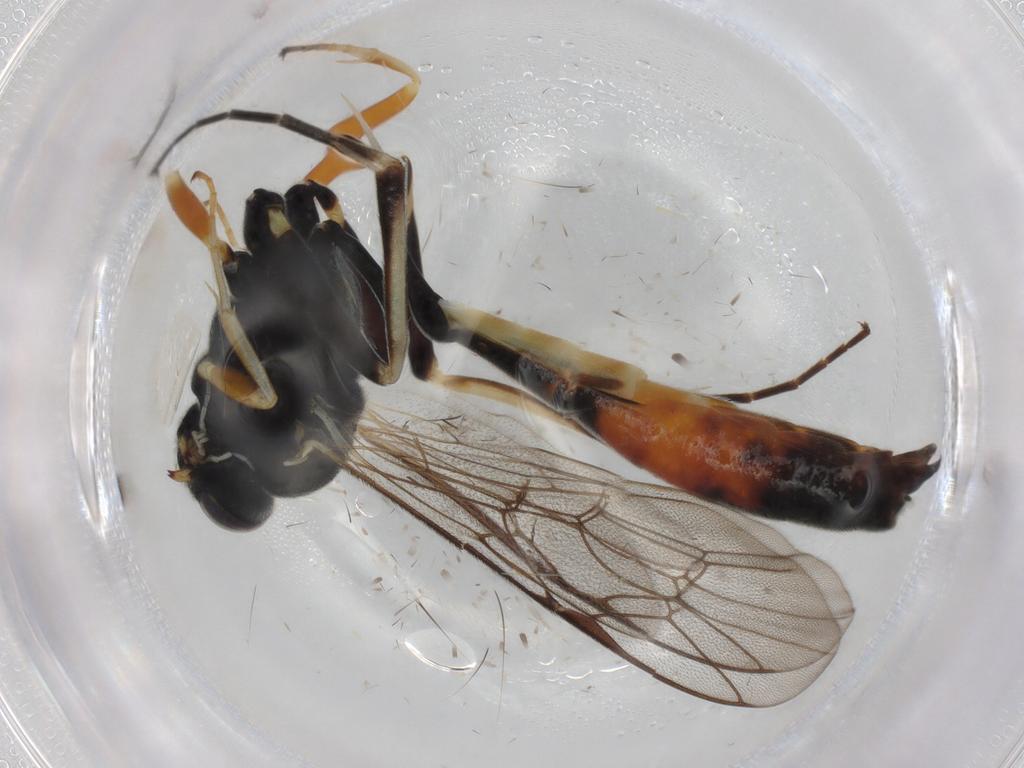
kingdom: Animalia
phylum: Arthropoda
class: Insecta
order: Hymenoptera
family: Ichneumonidae
